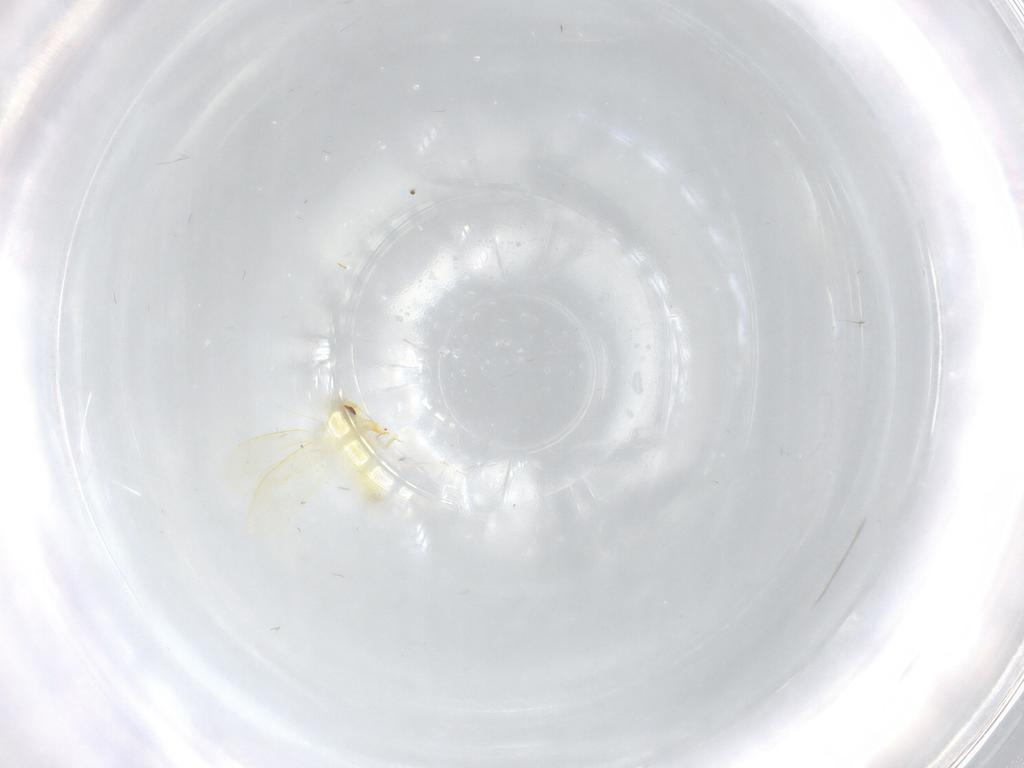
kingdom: Animalia
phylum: Arthropoda
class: Insecta
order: Hemiptera
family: Aleyrodidae
